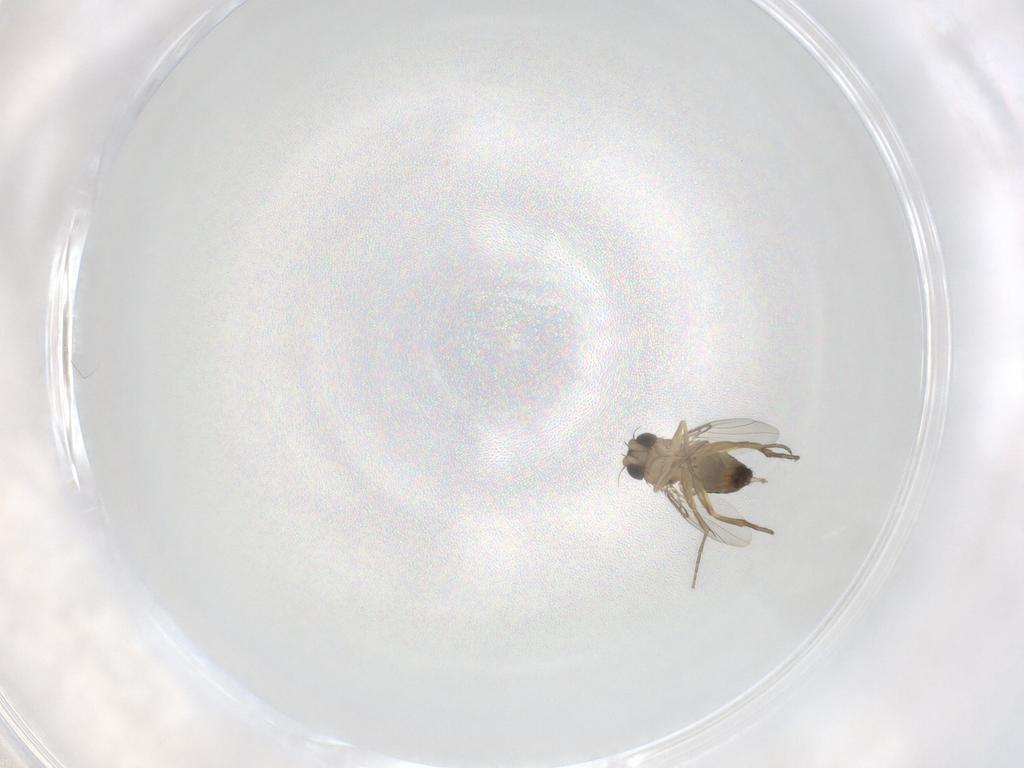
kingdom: Animalia
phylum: Arthropoda
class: Insecta
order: Diptera
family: Phoridae
